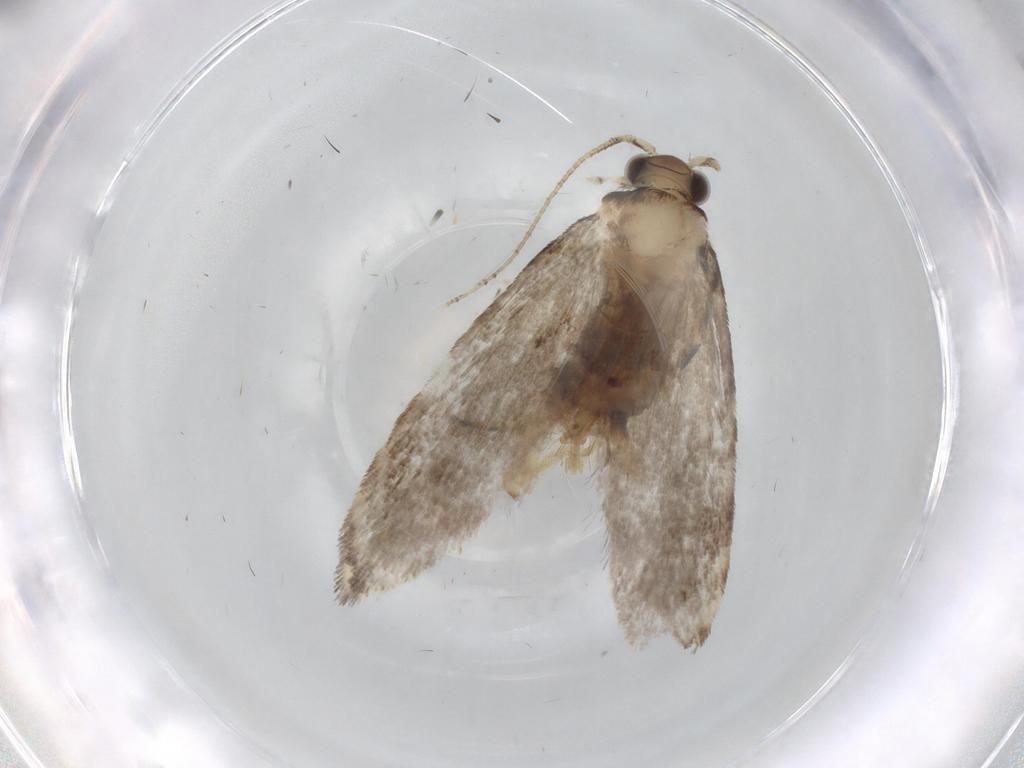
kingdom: Animalia
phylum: Arthropoda
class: Insecta
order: Lepidoptera
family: Tineidae
